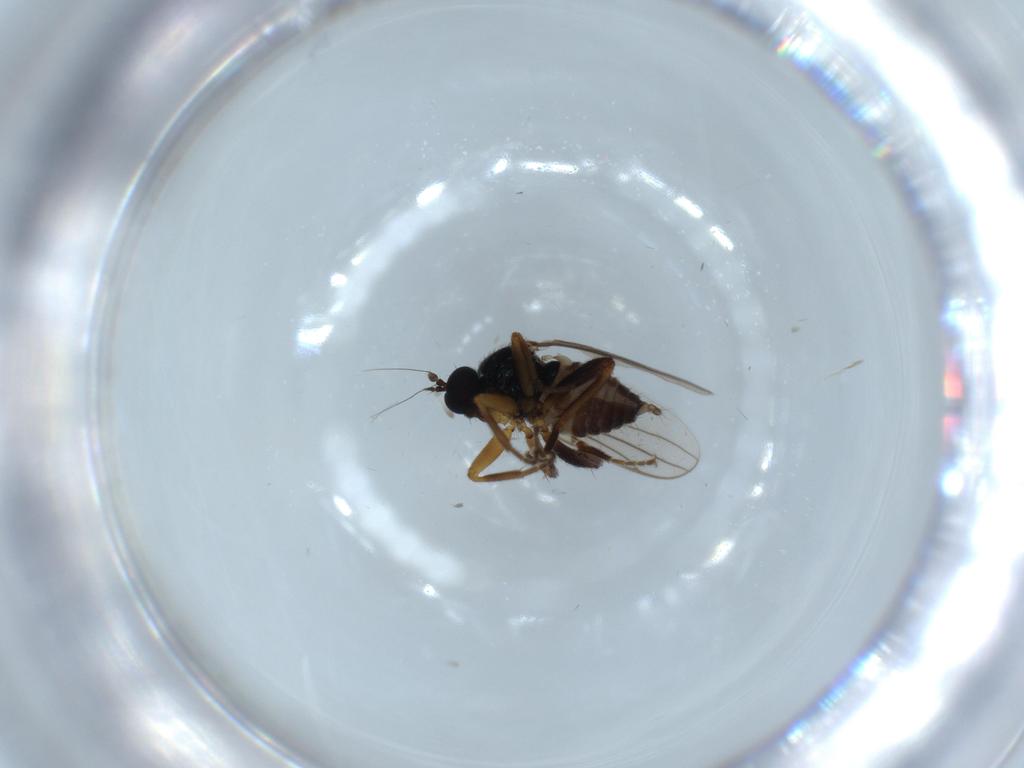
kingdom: Animalia
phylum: Arthropoda
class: Insecta
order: Diptera
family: Hybotidae
